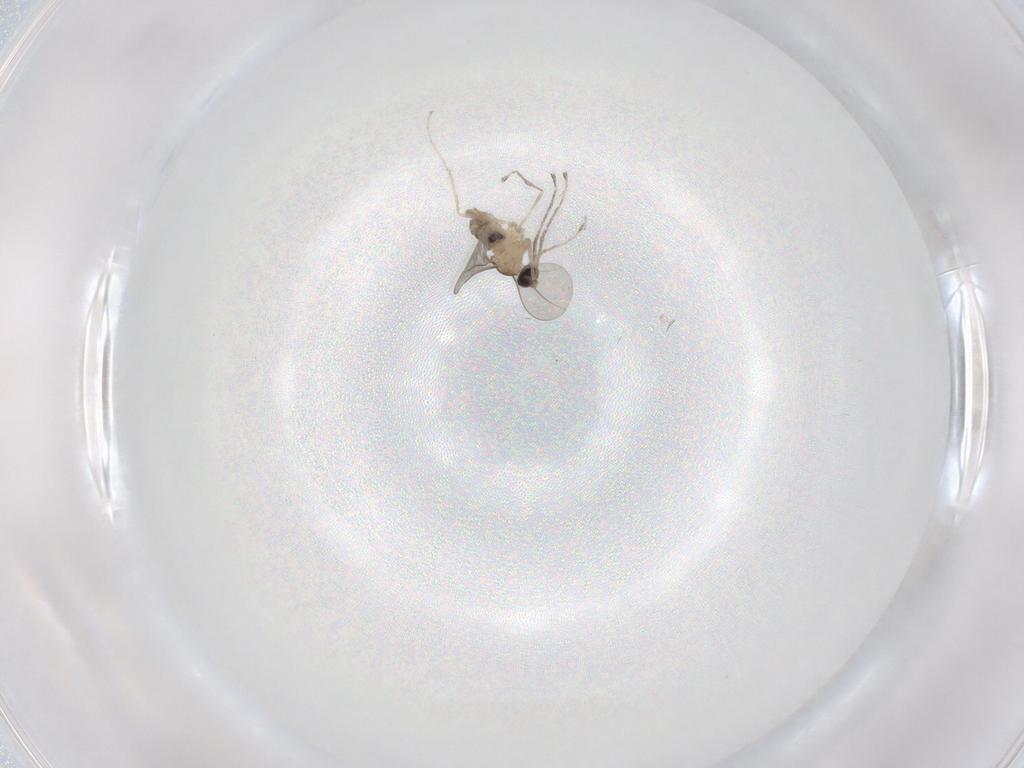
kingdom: Animalia
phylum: Arthropoda
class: Insecta
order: Diptera
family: Cecidomyiidae
